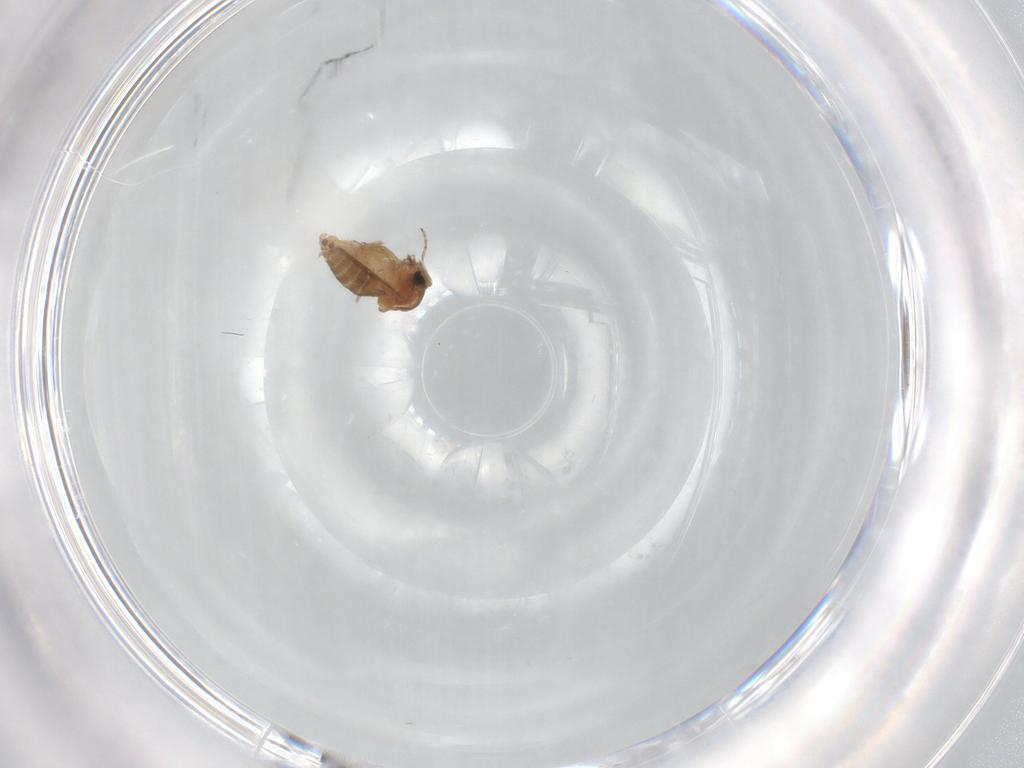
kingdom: Animalia
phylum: Arthropoda
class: Insecta
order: Diptera
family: Ceratopogonidae
